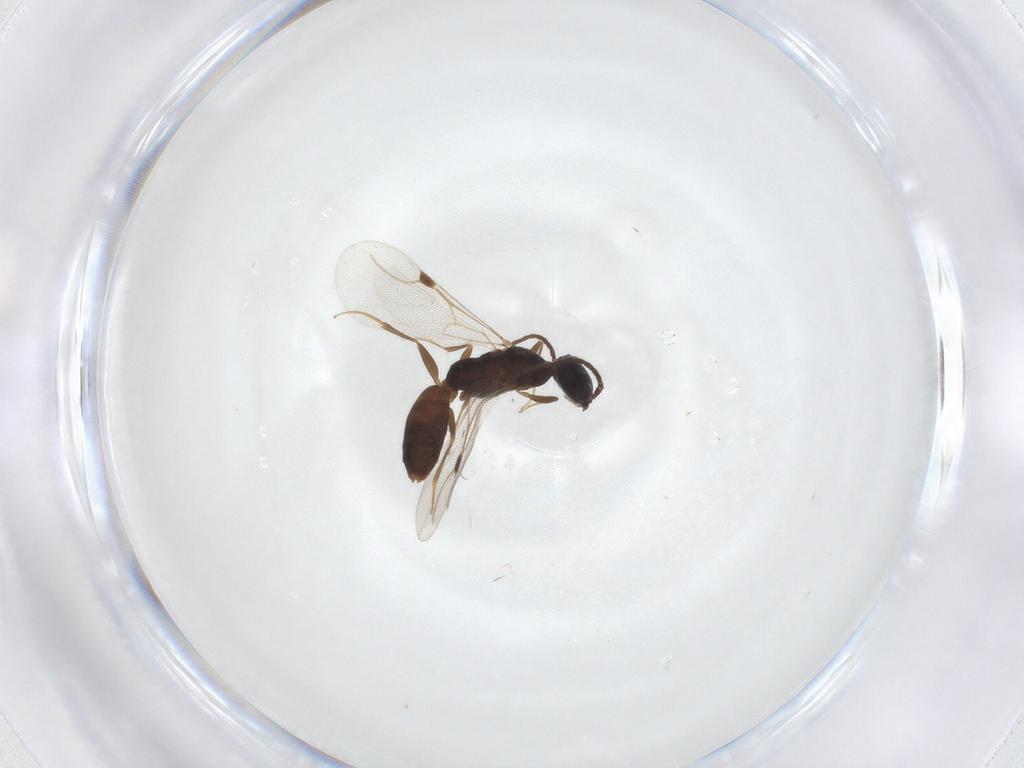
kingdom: Animalia
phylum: Arthropoda
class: Insecta
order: Hymenoptera
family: Bethylidae
